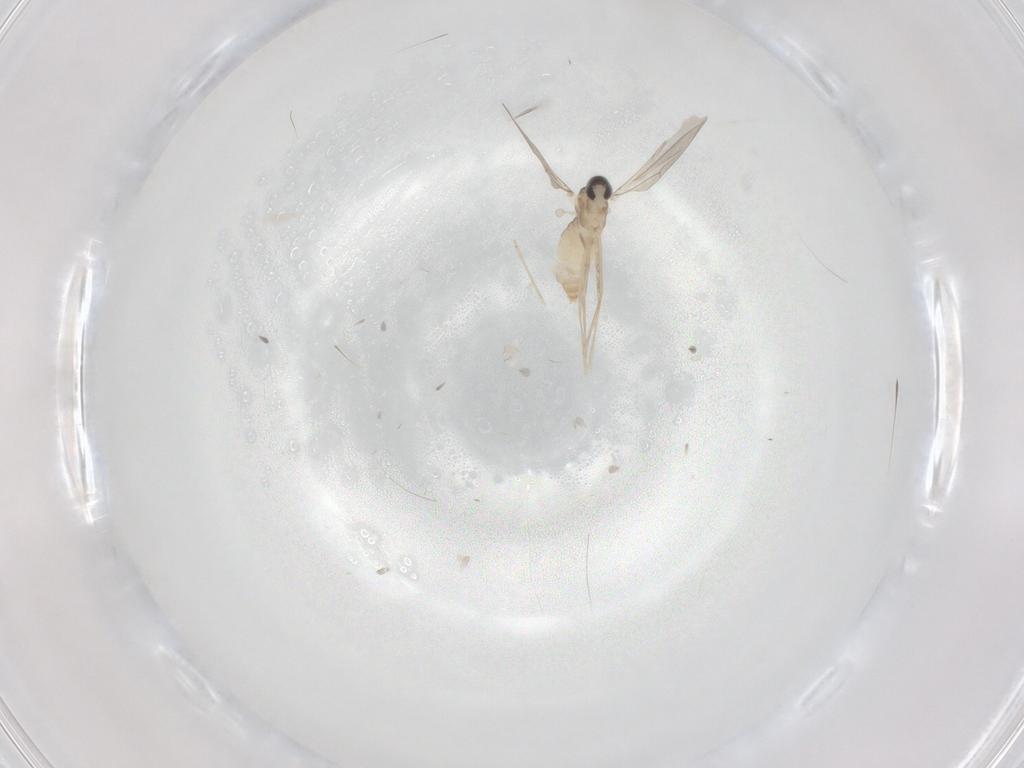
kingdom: Animalia
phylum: Arthropoda
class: Insecta
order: Diptera
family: Cecidomyiidae
